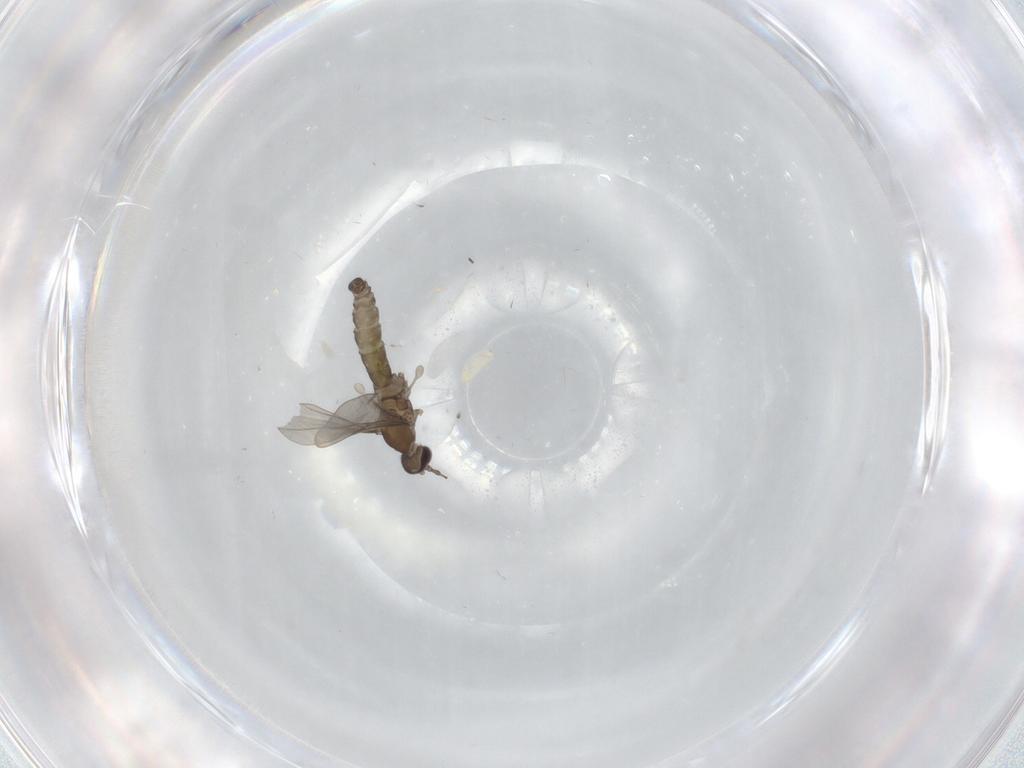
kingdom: Animalia
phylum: Arthropoda
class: Insecta
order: Diptera
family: Cecidomyiidae
